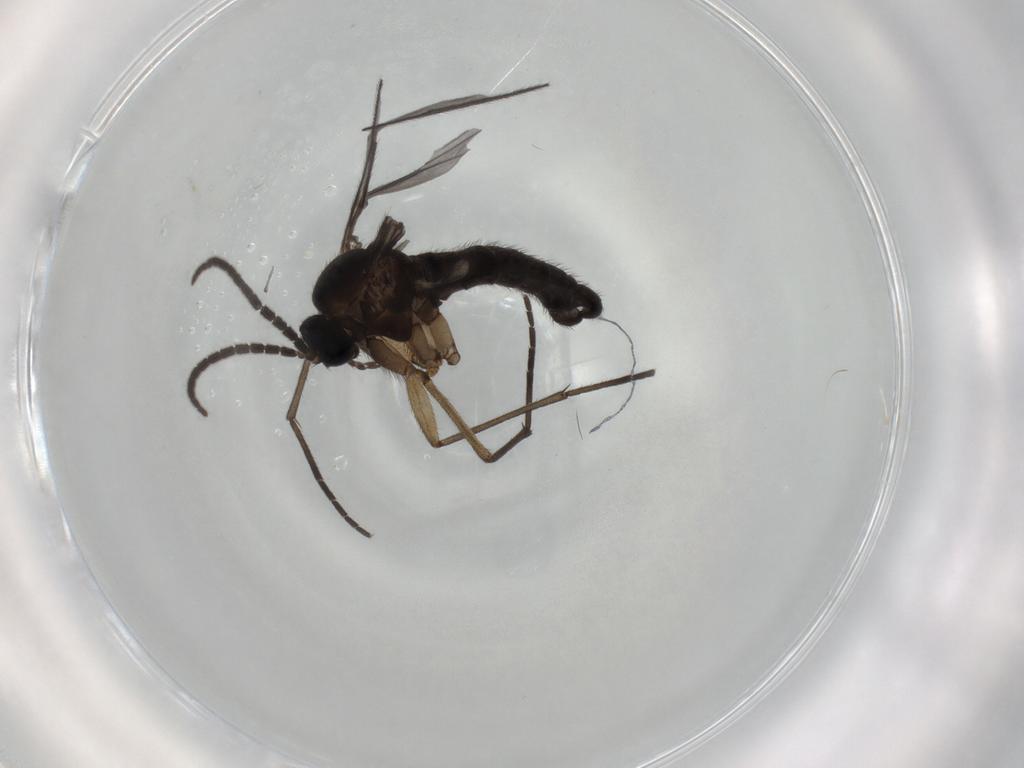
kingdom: Animalia
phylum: Arthropoda
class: Insecta
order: Diptera
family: Sciaridae
